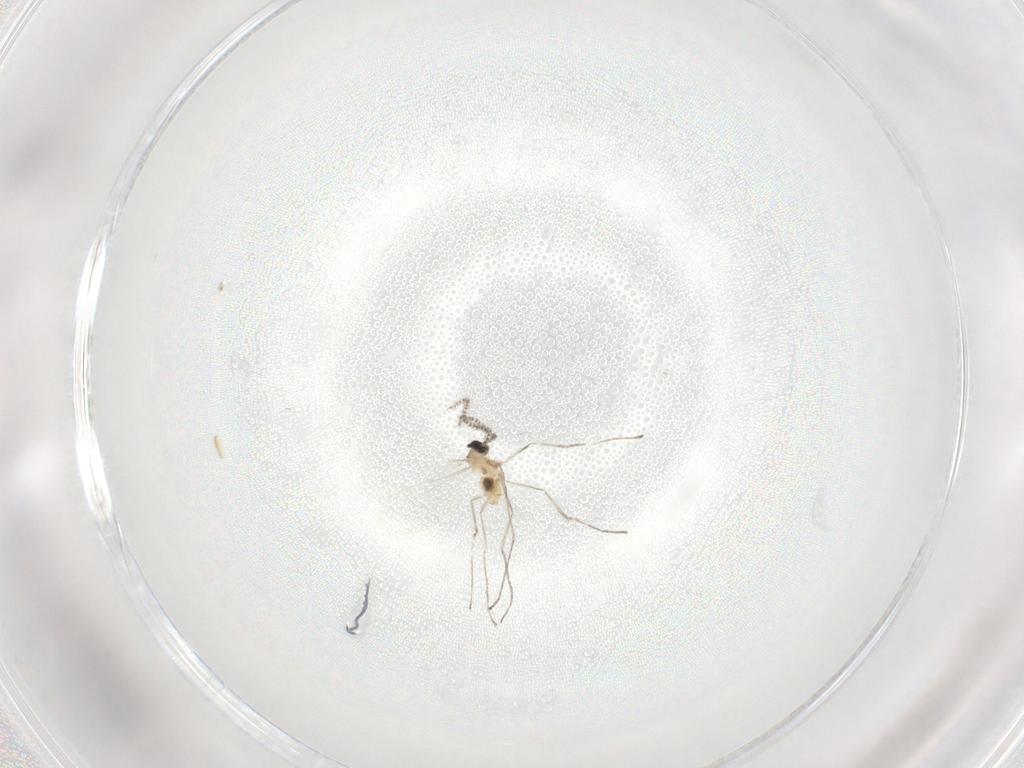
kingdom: Animalia
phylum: Arthropoda
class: Insecta
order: Diptera
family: Cecidomyiidae
